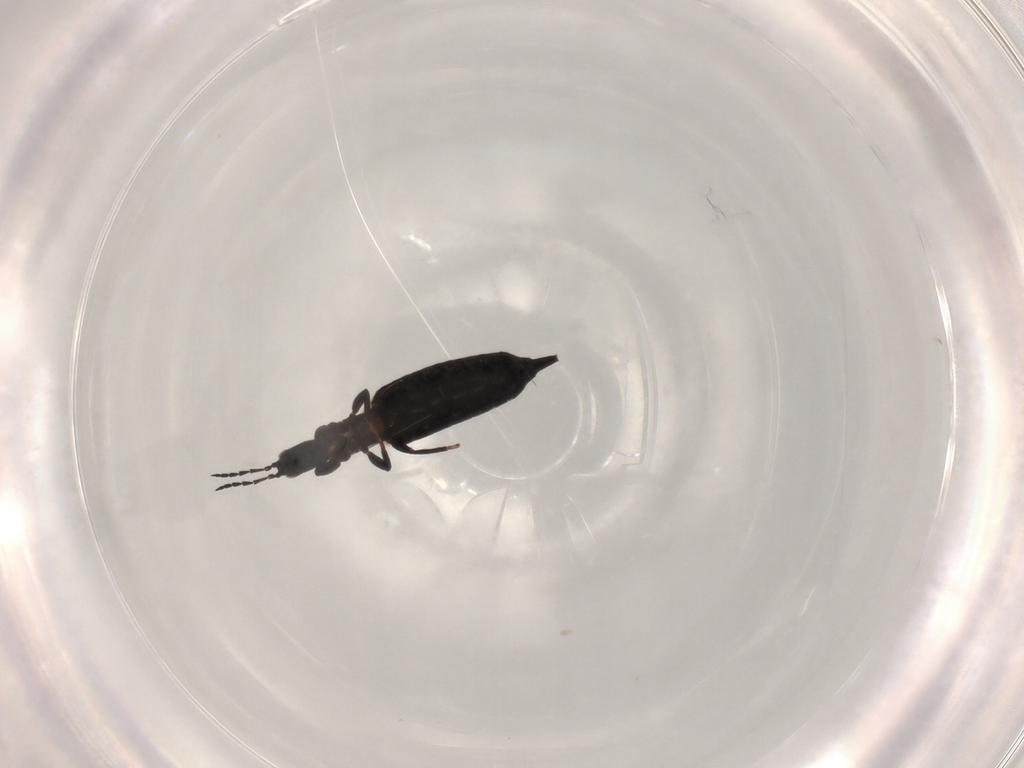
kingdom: Animalia
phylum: Arthropoda
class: Insecta
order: Thysanoptera
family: Phlaeothripidae
